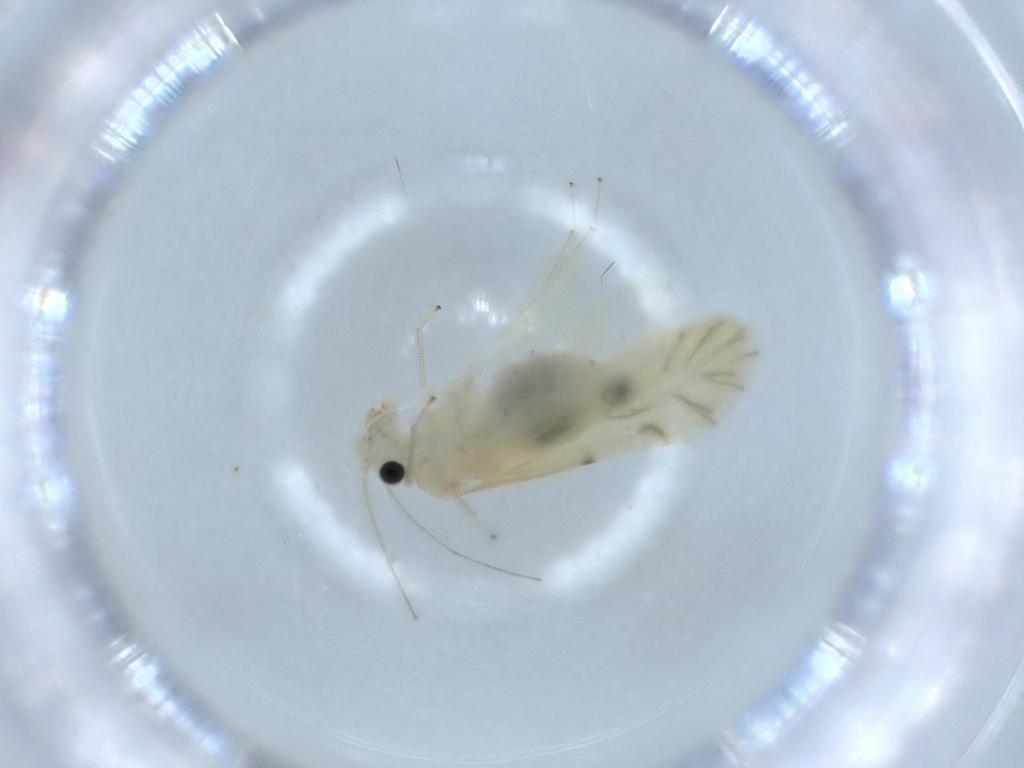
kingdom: Animalia
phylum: Arthropoda
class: Insecta
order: Psocodea
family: Caeciliusidae
